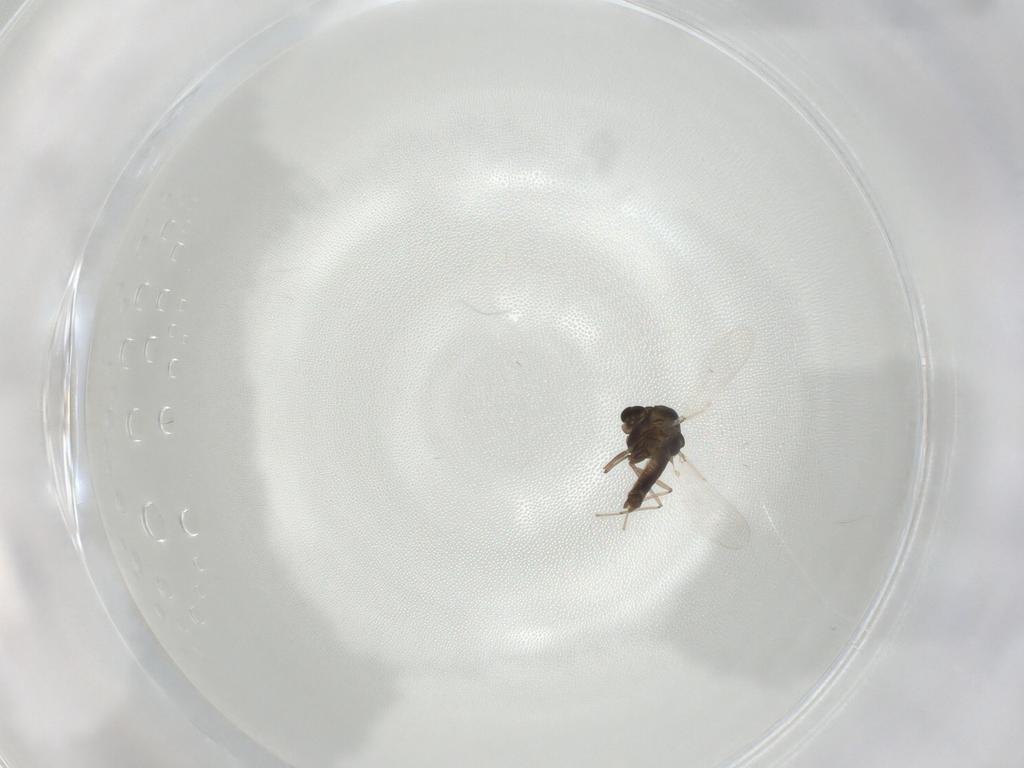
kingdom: Animalia
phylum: Arthropoda
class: Insecta
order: Diptera
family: Chironomidae
